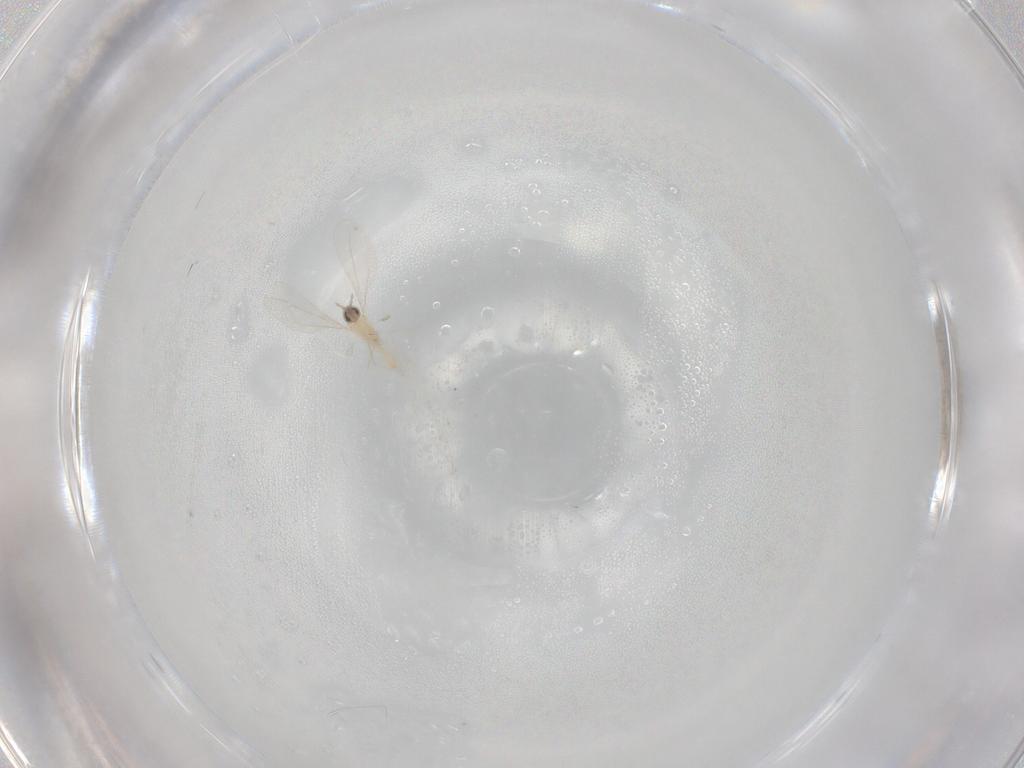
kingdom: Animalia
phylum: Arthropoda
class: Insecta
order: Diptera
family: Cecidomyiidae
